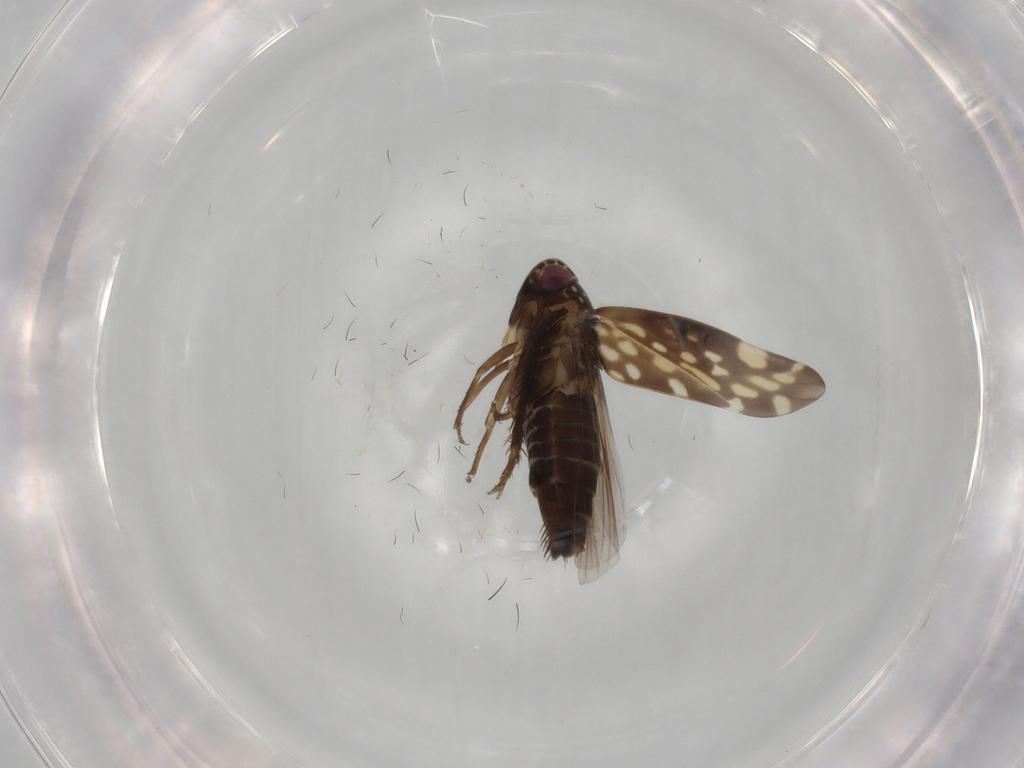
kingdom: Animalia
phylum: Arthropoda
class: Insecta
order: Hemiptera
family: Cicadellidae
